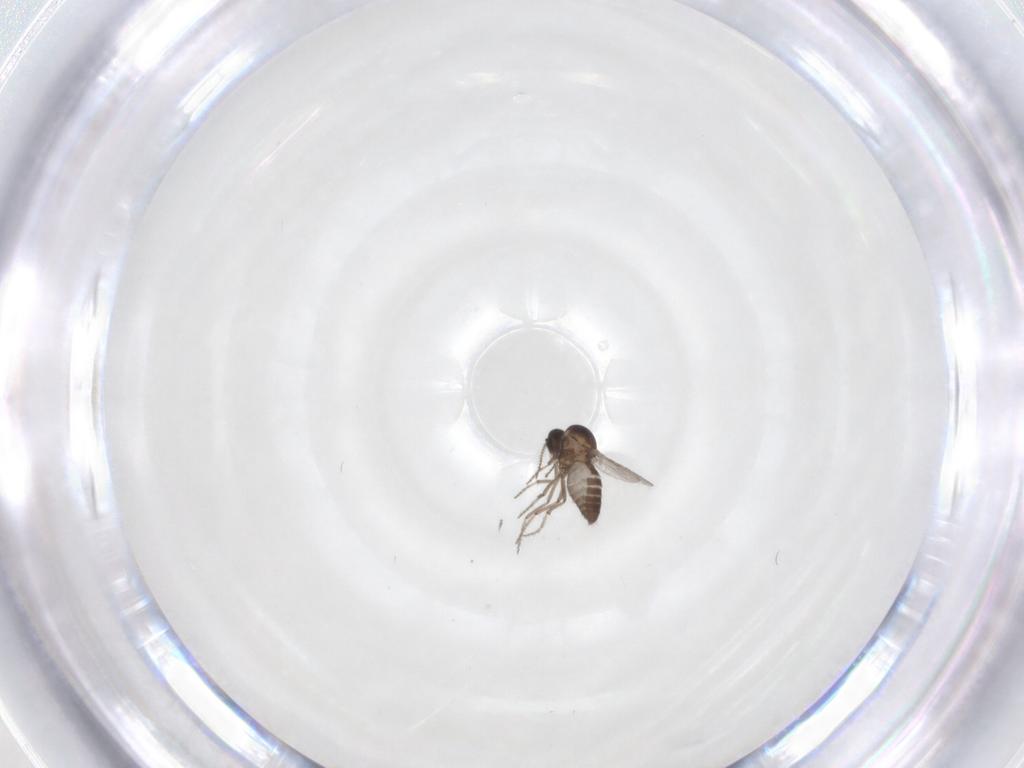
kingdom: Animalia
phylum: Arthropoda
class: Insecta
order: Diptera
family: Ceratopogonidae
